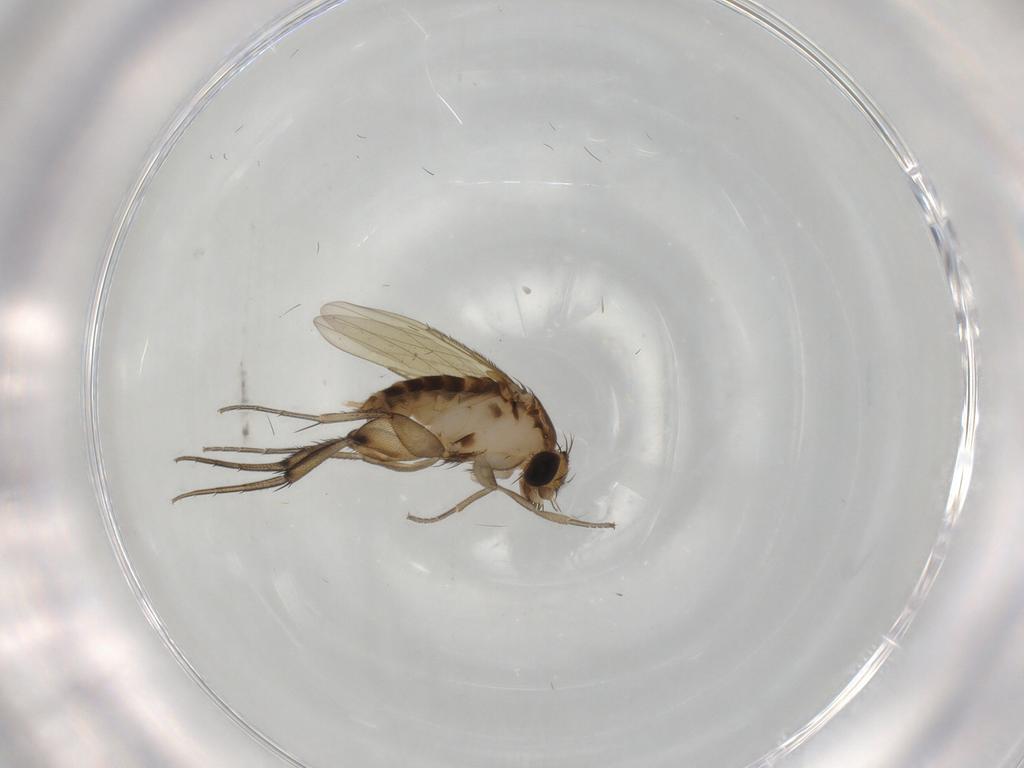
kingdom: Animalia
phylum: Arthropoda
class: Insecta
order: Diptera
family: Phoridae
